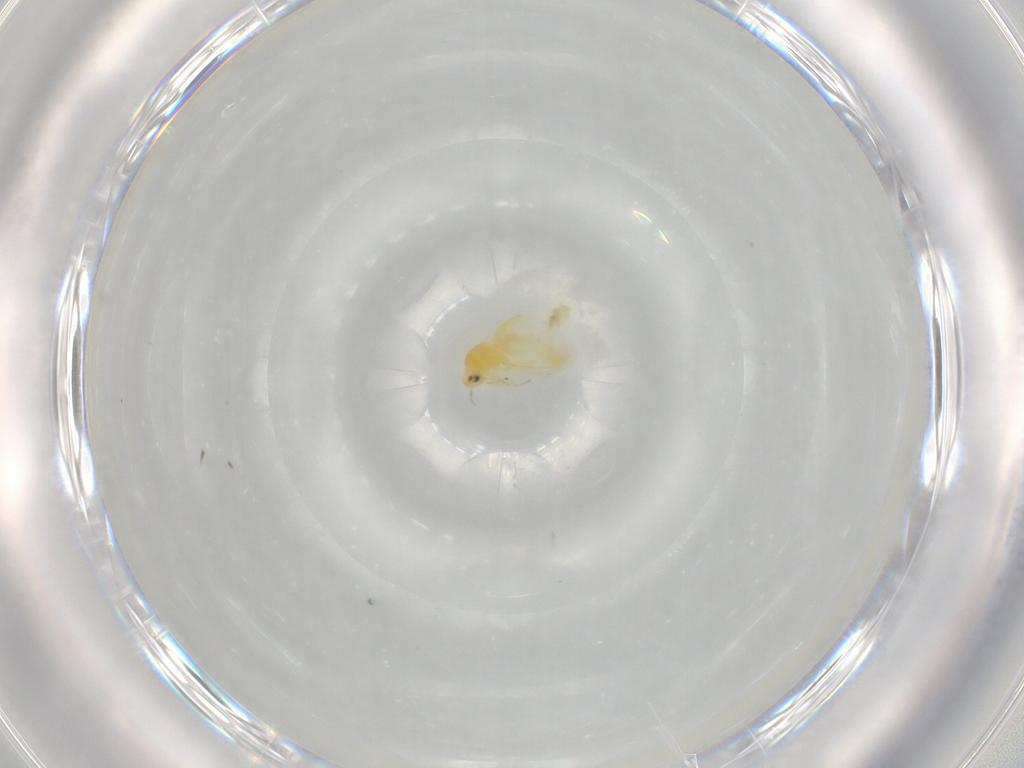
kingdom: Animalia
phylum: Arthropoda
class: Insecta
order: Hemiptera
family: Aleyrodidae
